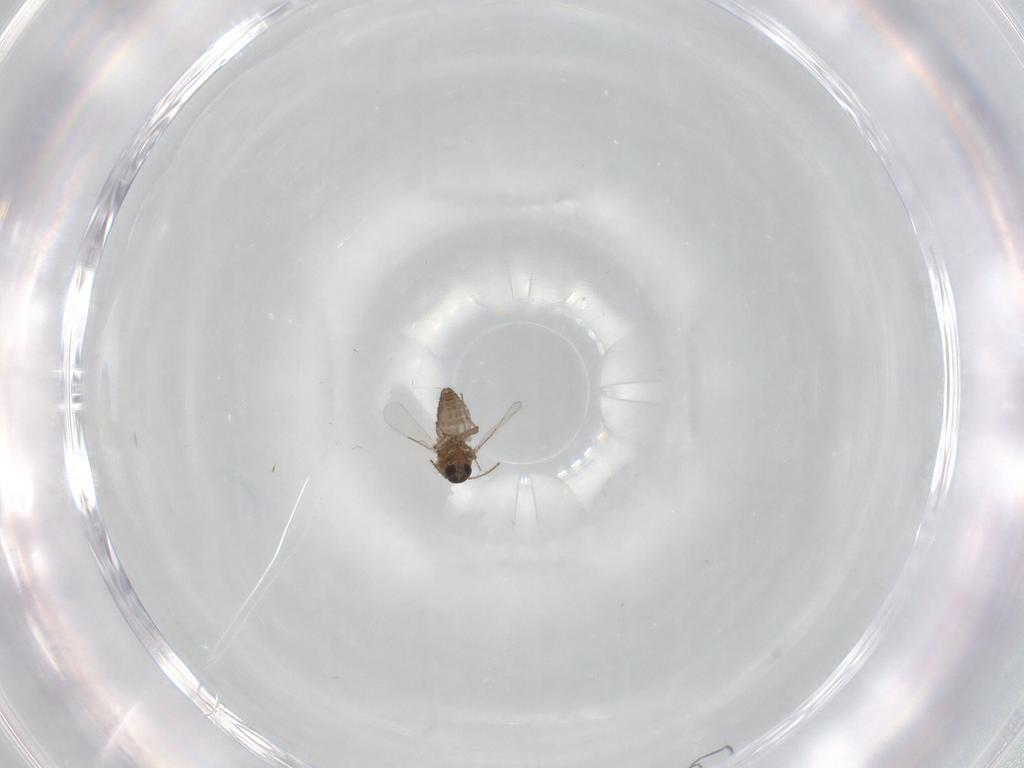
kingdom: Animalia
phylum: Arthropoda
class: Insecta
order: Diptera
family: Ceratopogonidae
